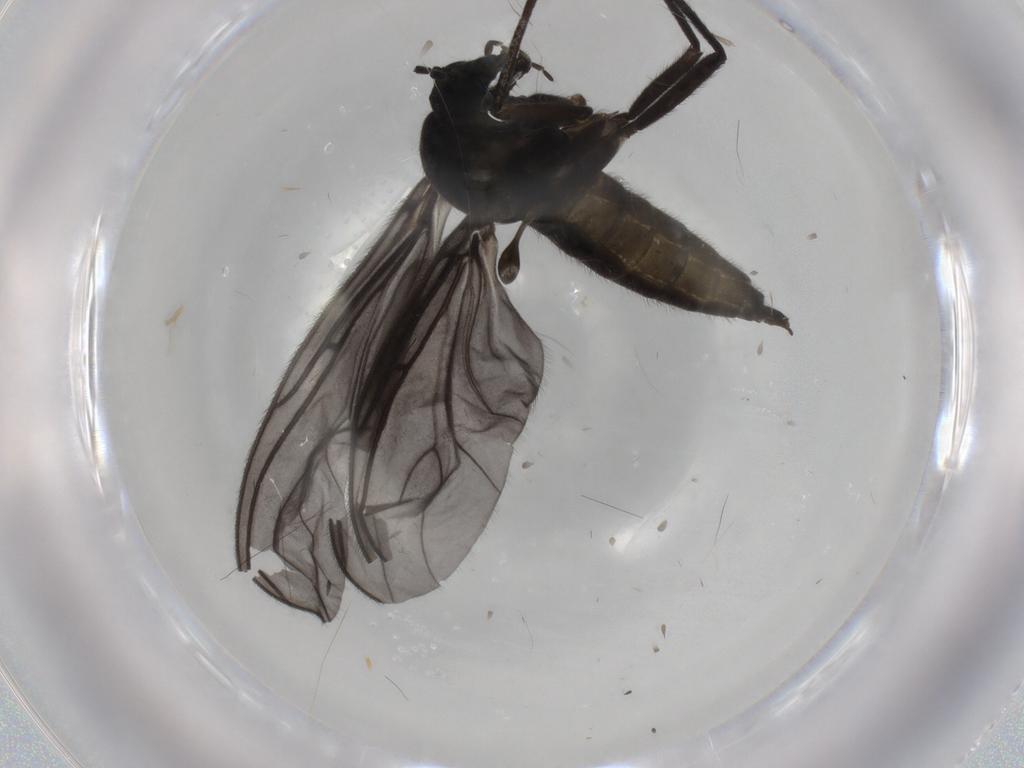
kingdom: Animalia
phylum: Arthropoda
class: Insecta
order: Diptera
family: Sciaridae
